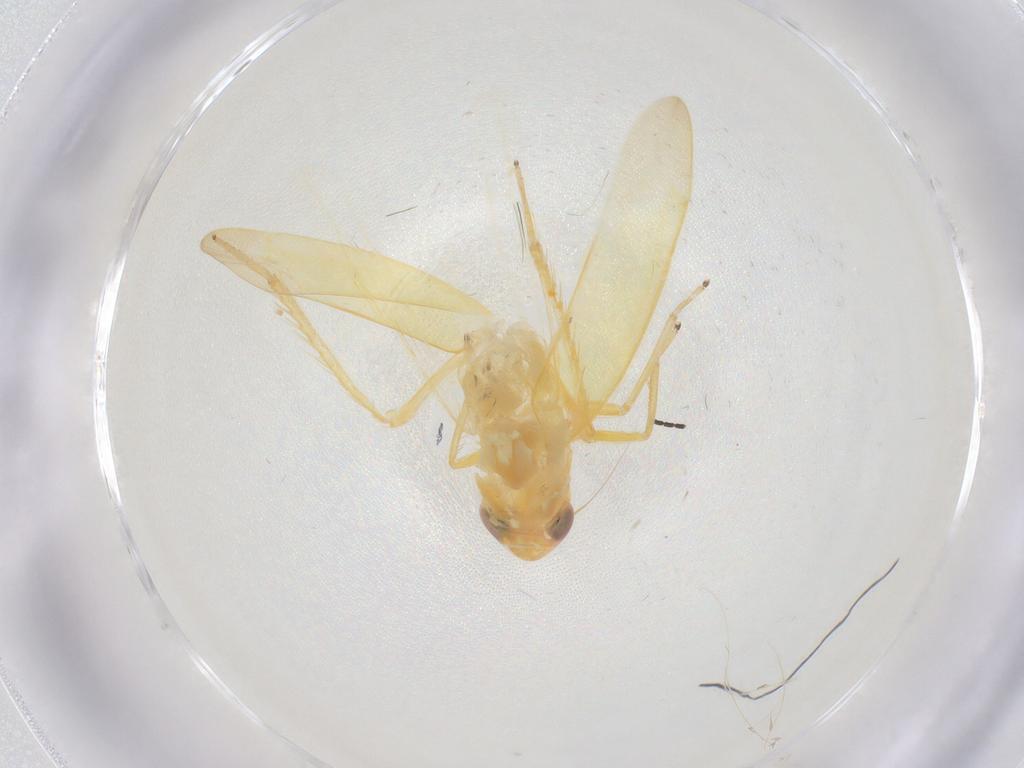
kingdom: Animalia
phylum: Arthropoda
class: Insecta
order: Hemiptera
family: Cicadellidae
